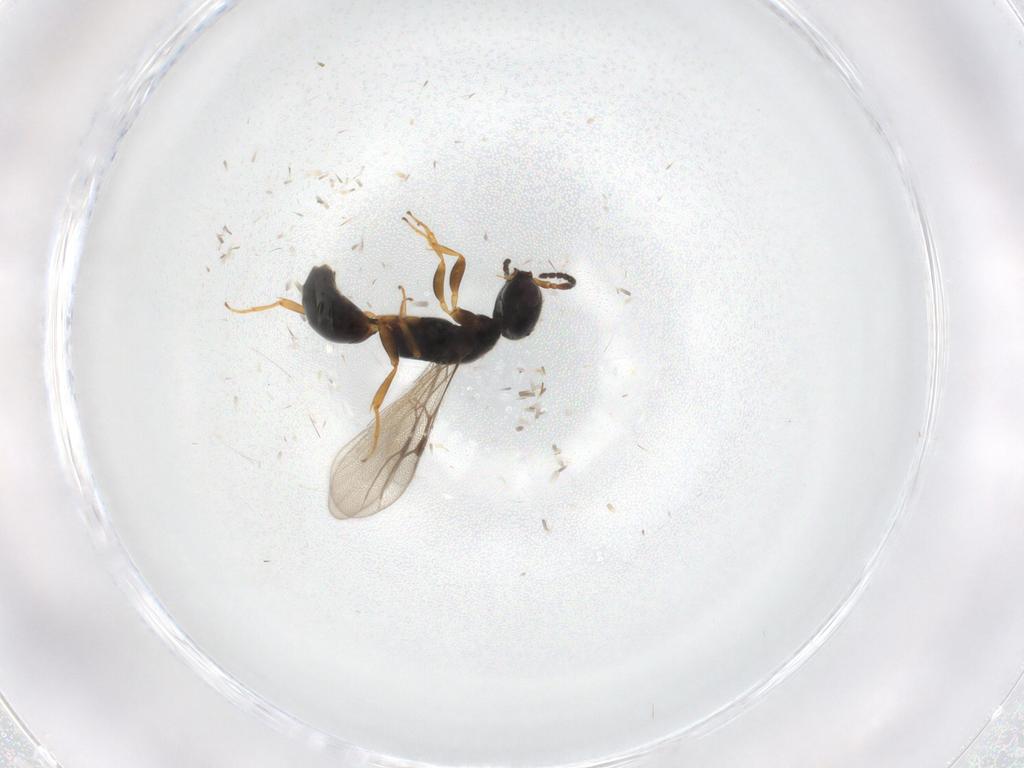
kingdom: Animalia
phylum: Arthropoda
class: Insecta
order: Hymenoptera
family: Bethylidae
